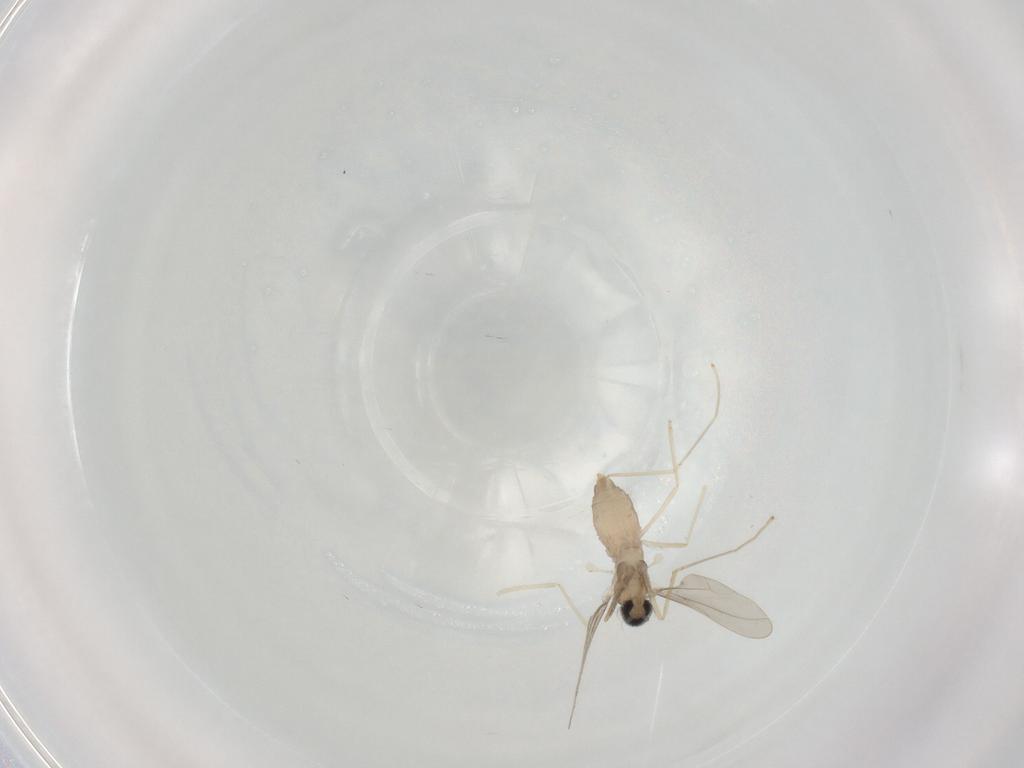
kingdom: Animalia
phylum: Arthropoda
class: Insecta
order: Diptera
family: Cecidomyiidae
